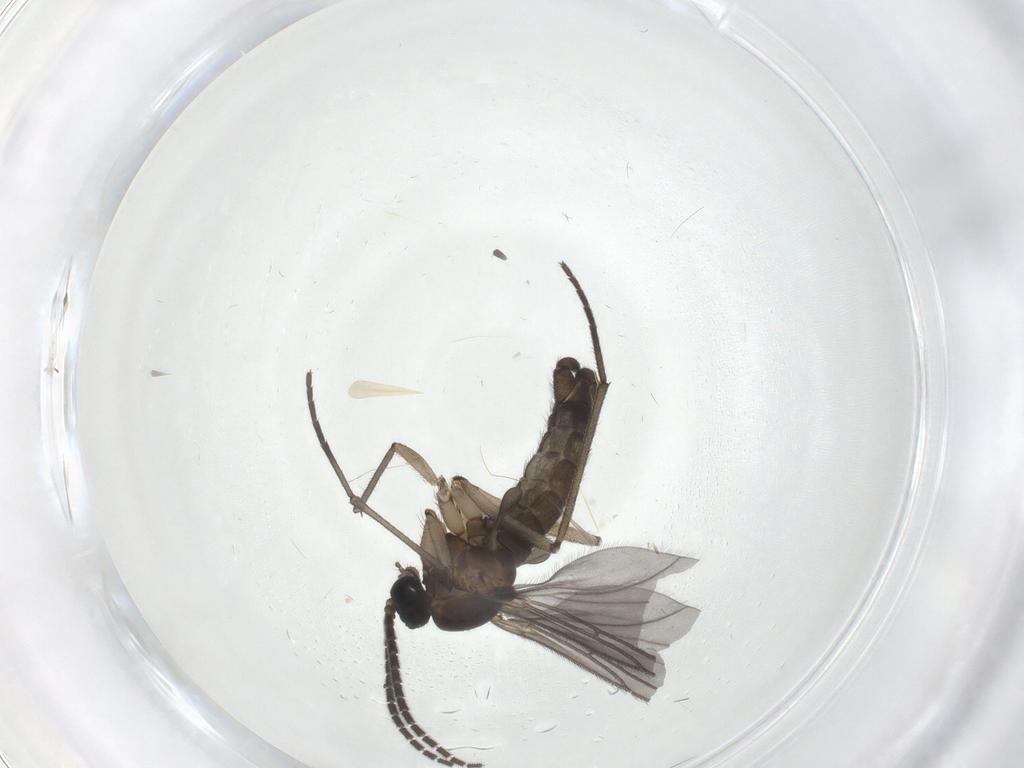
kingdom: Animalia
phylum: Arthropoda
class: Insecta
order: Diptera
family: Sciaridae
